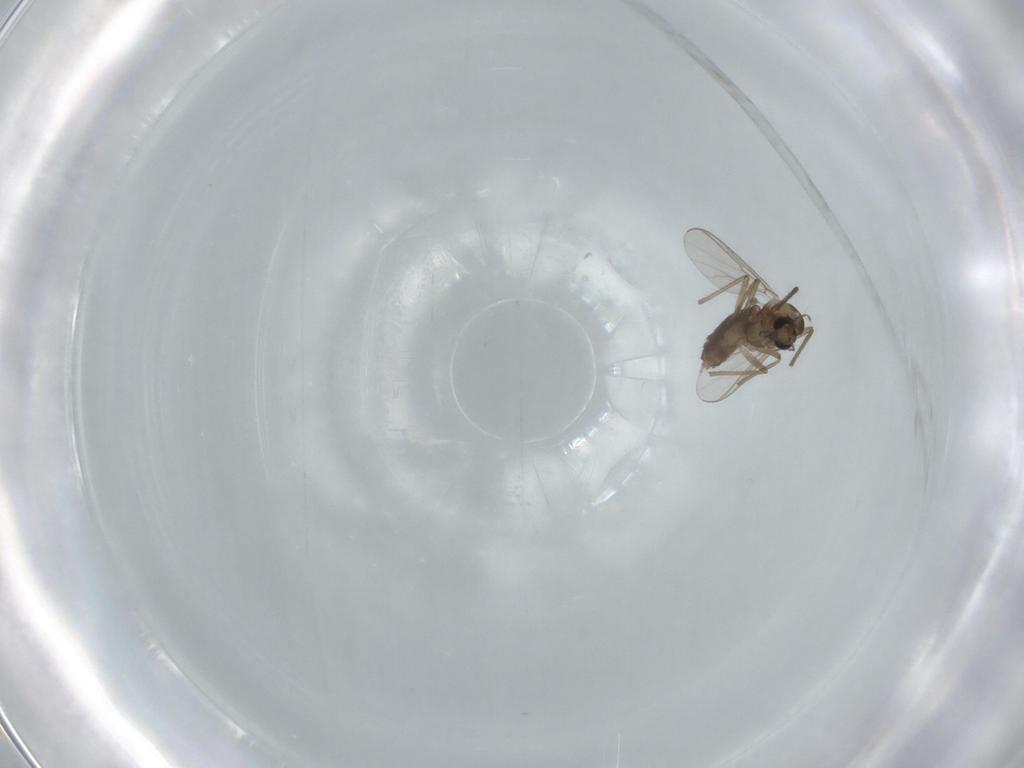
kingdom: Animalia
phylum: Arthropoda
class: Insecta
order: Diptera
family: Chironomidae
